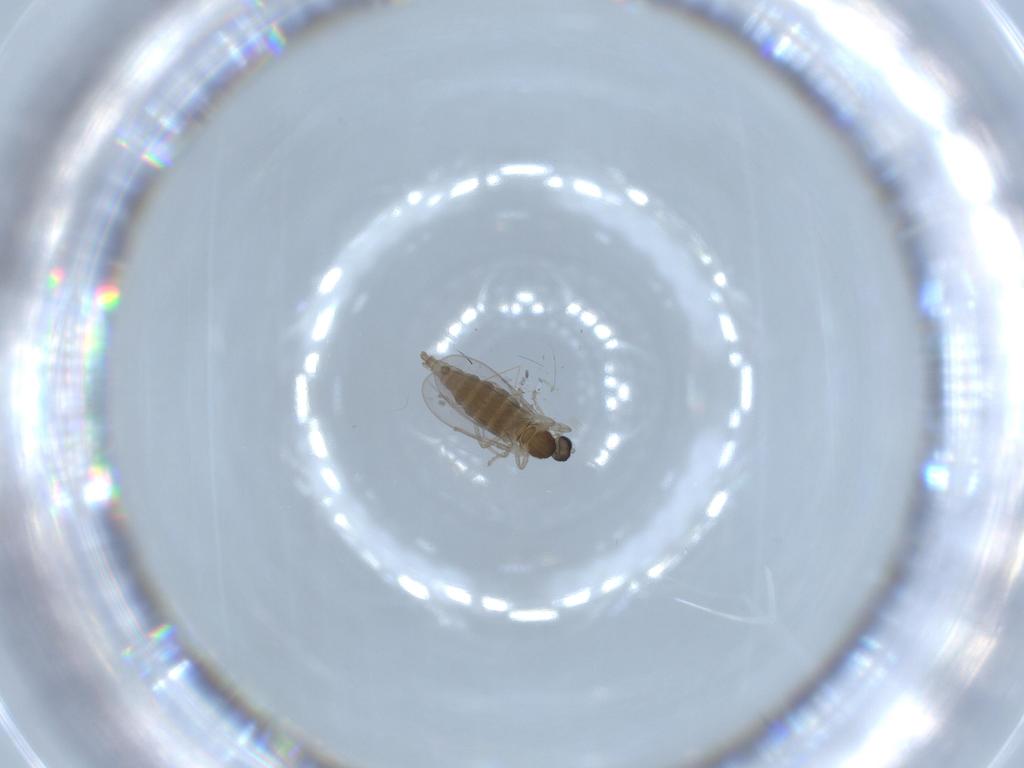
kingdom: Animalia
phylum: Arthropoda
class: Insecta
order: Diptera
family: Cecidomyiidae
